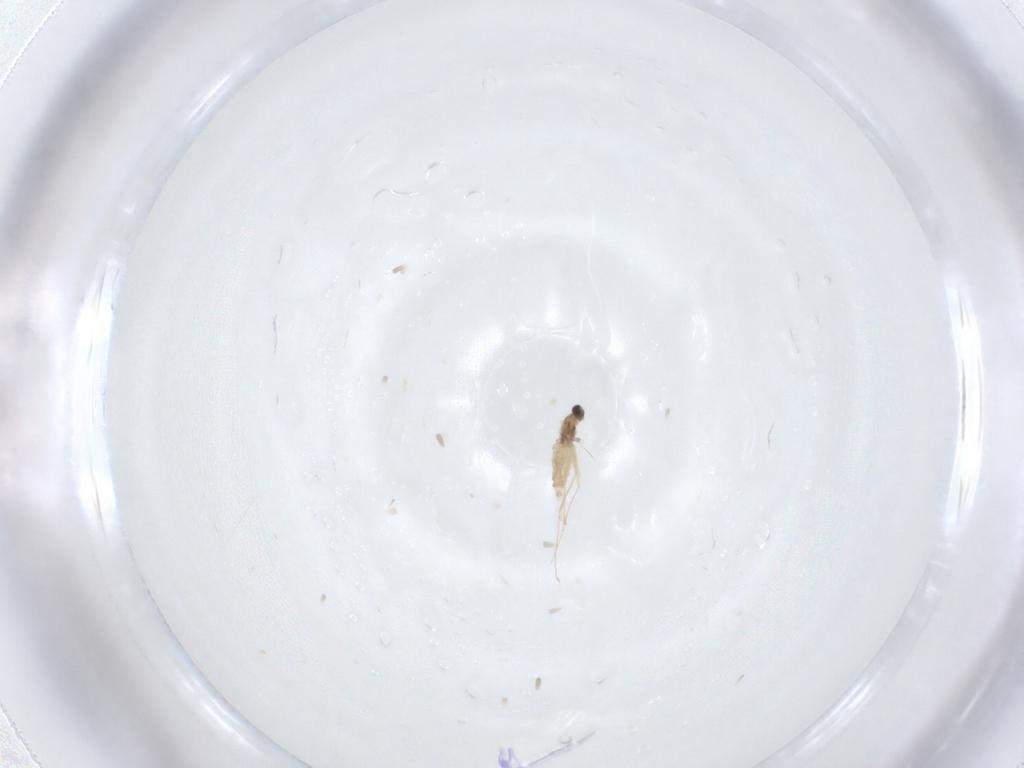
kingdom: Animalia
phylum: Arthropoda
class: Insecta
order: Diptera
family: Cecidomyiidae
